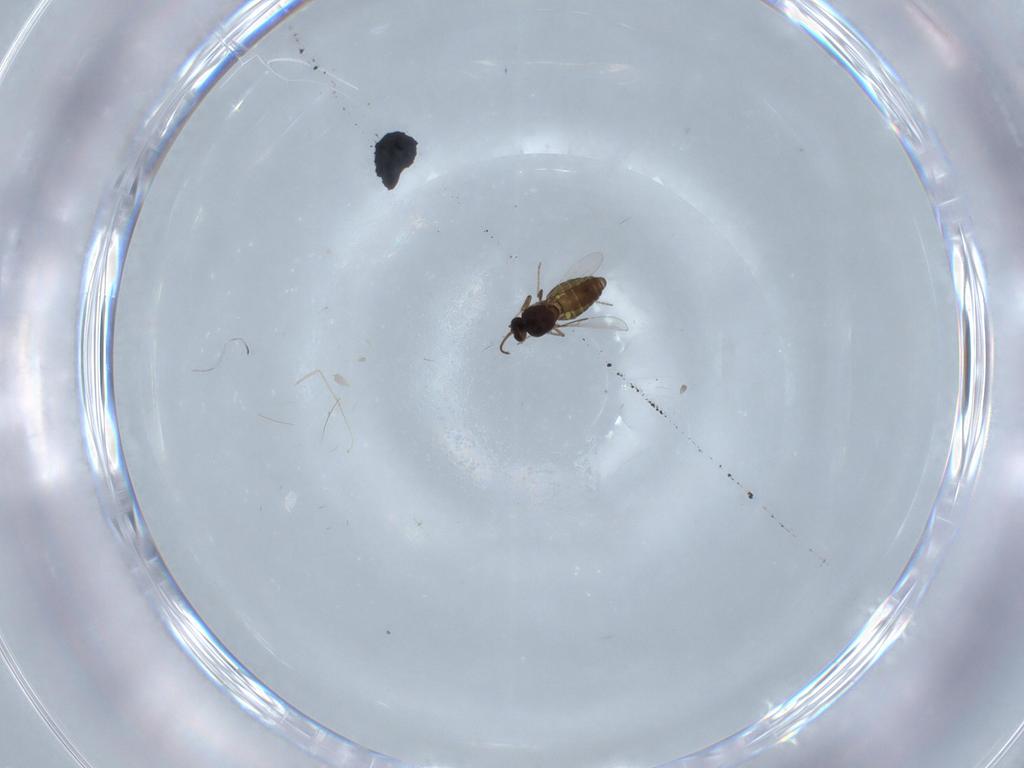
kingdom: Animalia
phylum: Arthropoda
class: Insecta
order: Diptera
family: Ceratopogonidae
